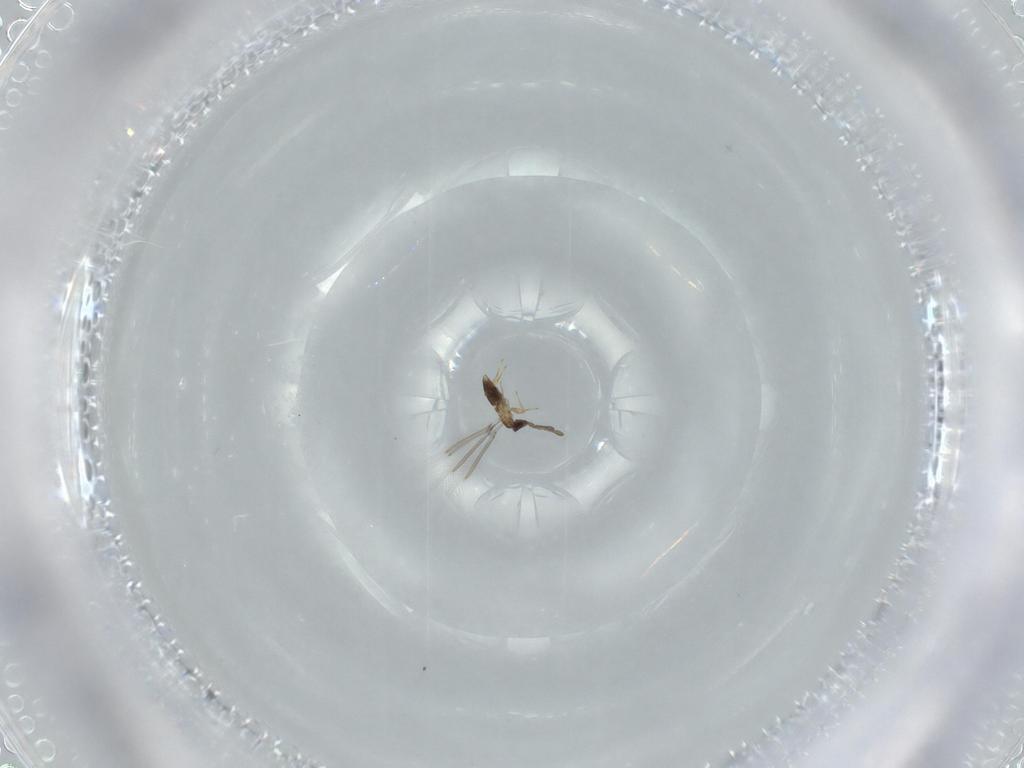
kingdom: Animalia
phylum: Arthropoda
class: Insecta
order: Hymenoptera
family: Mymaridae
